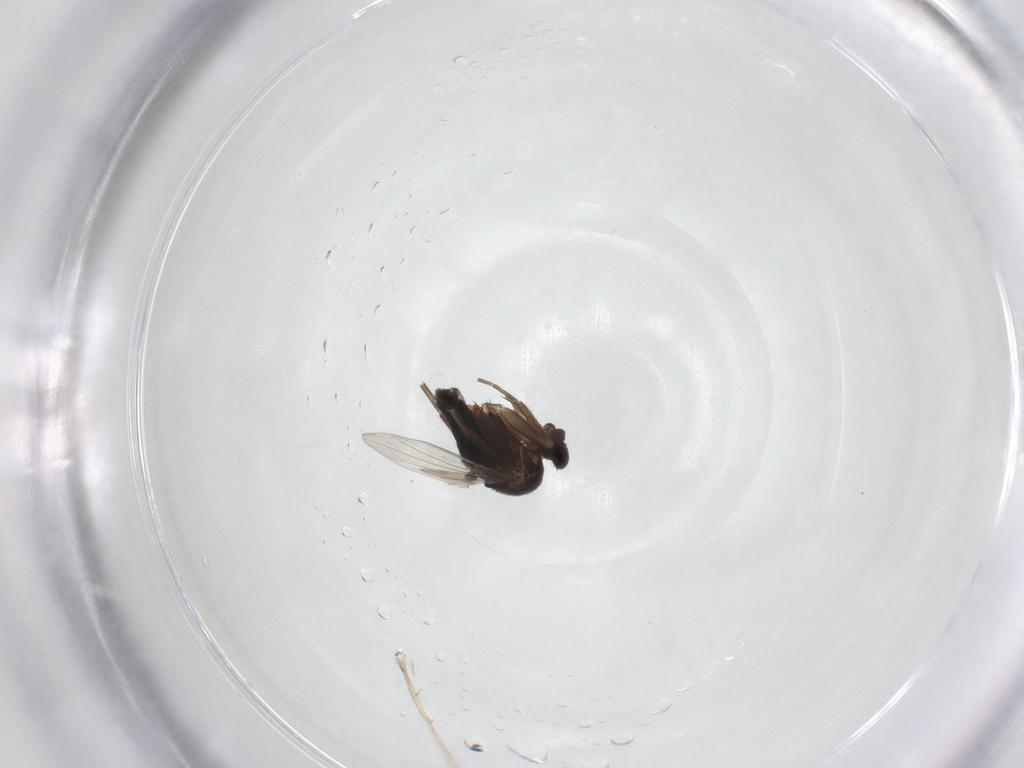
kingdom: Animalia
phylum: Arthropoda
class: Insecta
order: Diptera
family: Phoridae
